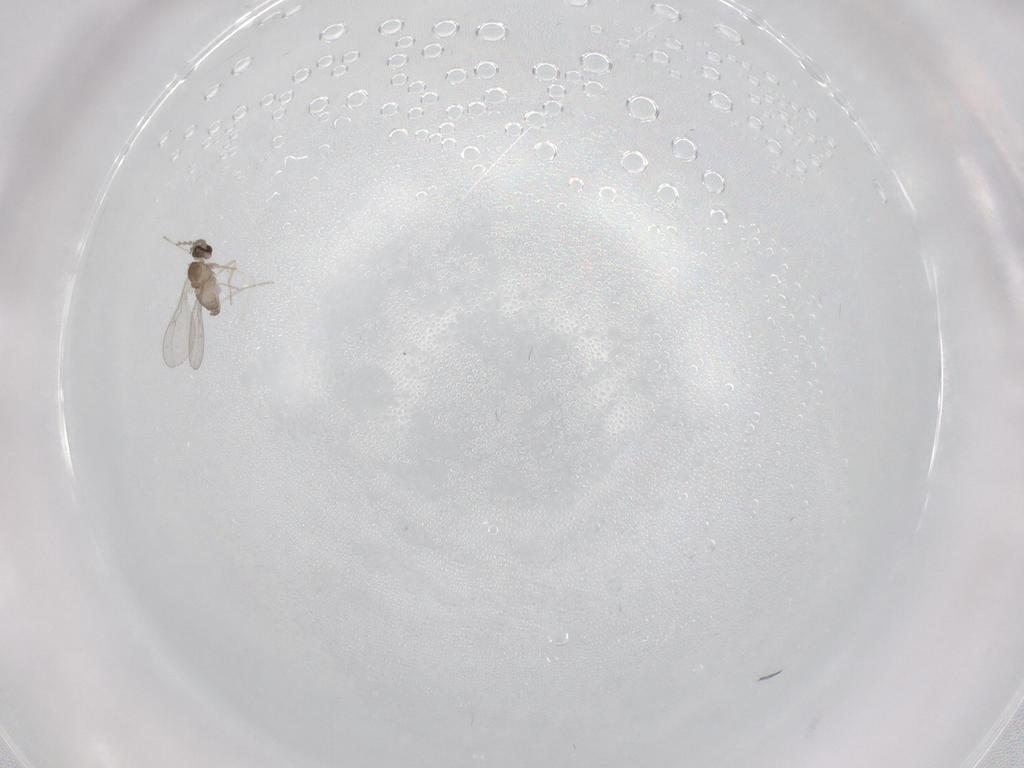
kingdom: Animalia
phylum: Arthropoda
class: Insecta
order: Diptera
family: Cecidomyiidae
